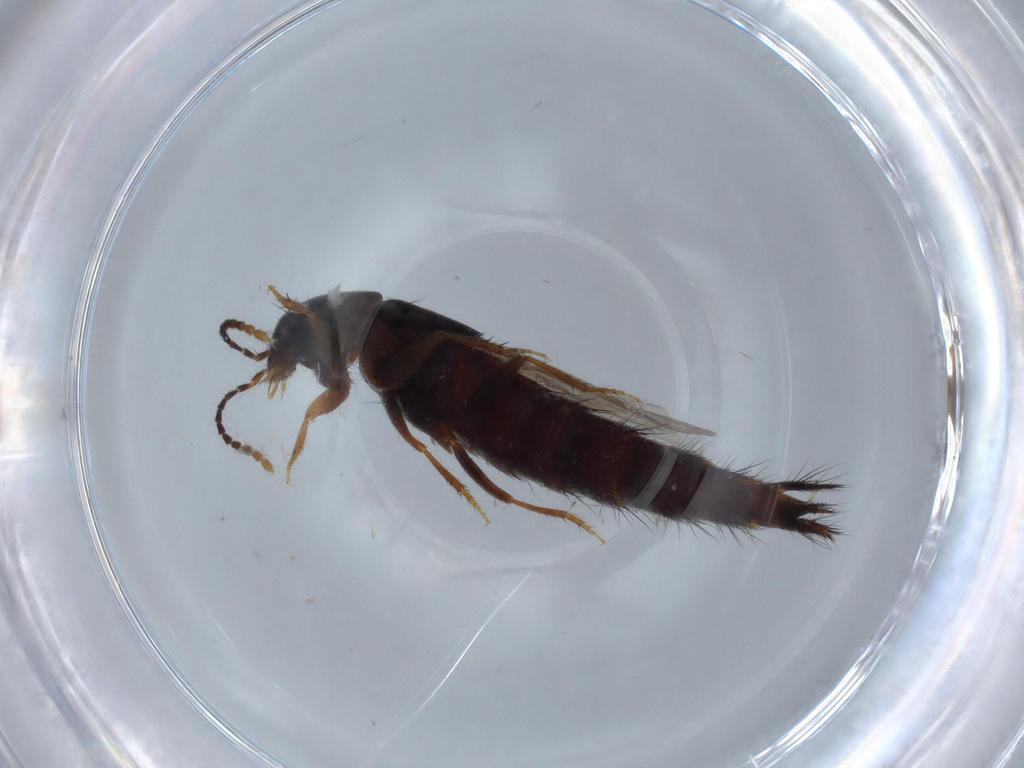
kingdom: Animalia
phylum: Arthropoda
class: Insecta
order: Coleoptera
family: Staphylinidae
